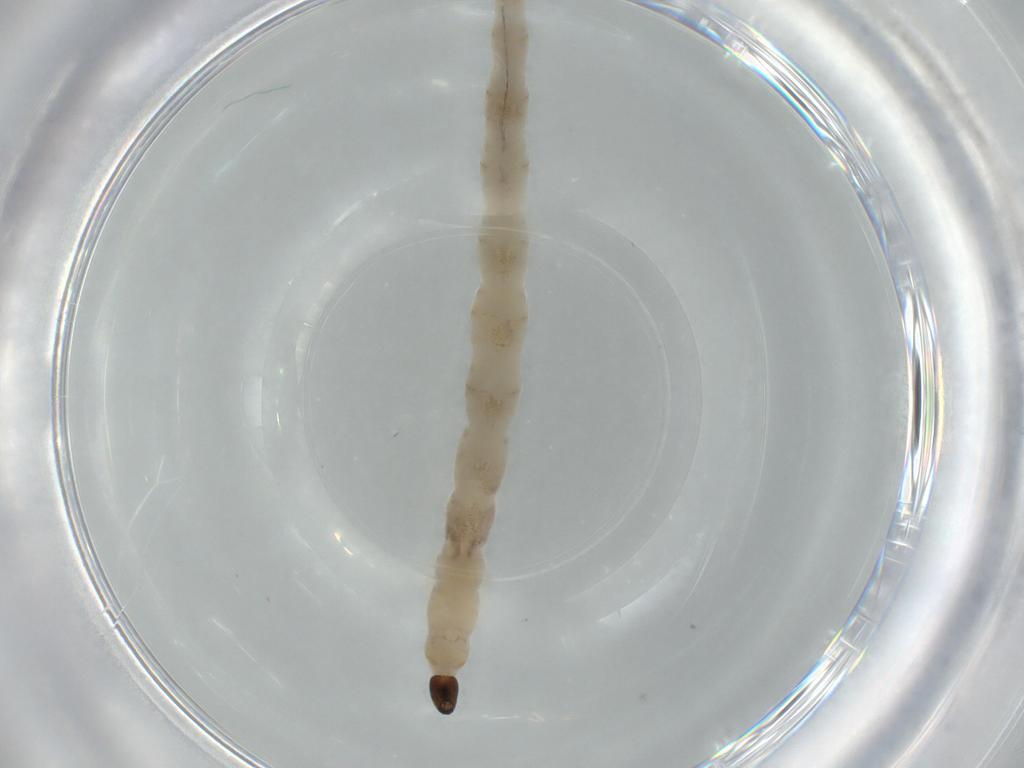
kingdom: Animalia
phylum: Arthropoda
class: Insecta
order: Diptera
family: Ceratopogonidae
